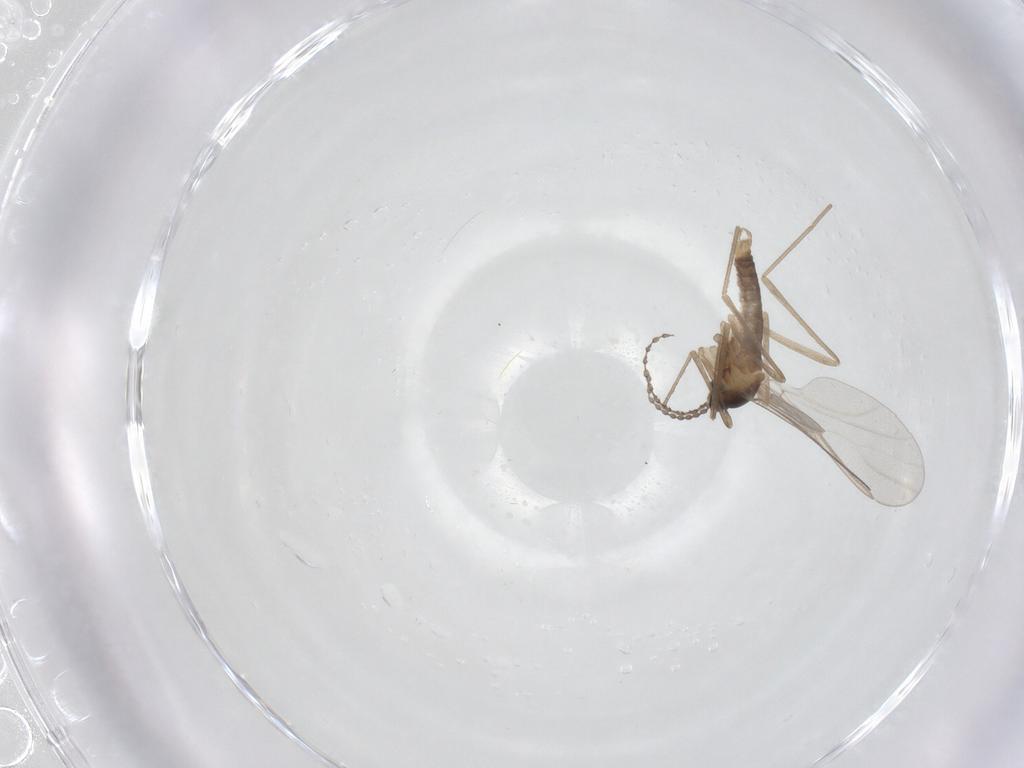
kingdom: Animalia
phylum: Arthropoda
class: Insecta
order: Diptera
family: Cecidomyiidae
